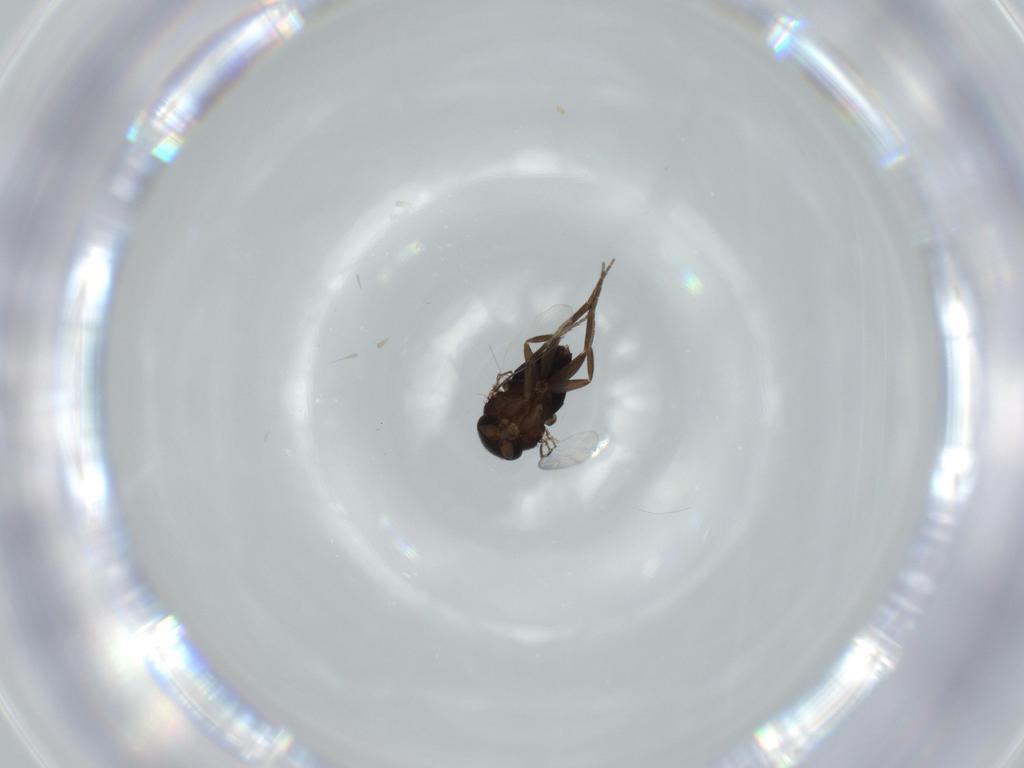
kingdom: Animalia
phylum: Arthropoda
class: Insecta
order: Diptera
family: Phoridae
